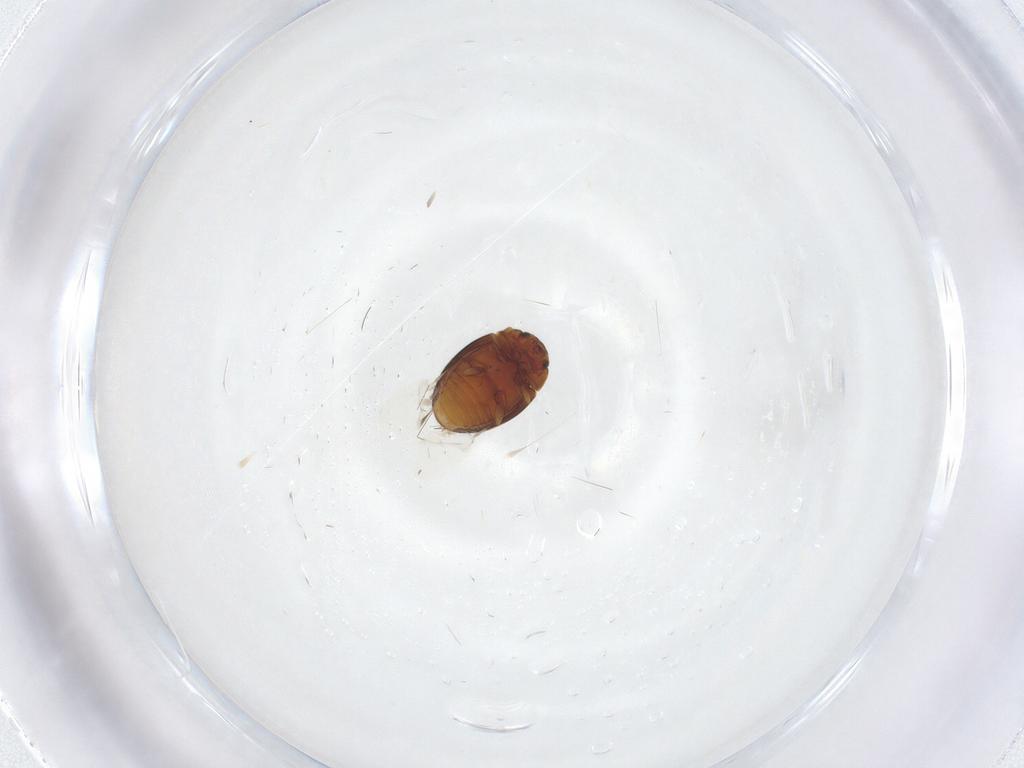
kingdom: Animalia
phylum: Arthropoda
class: Insecta
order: Coleoptera
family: Eupsilobiidae
